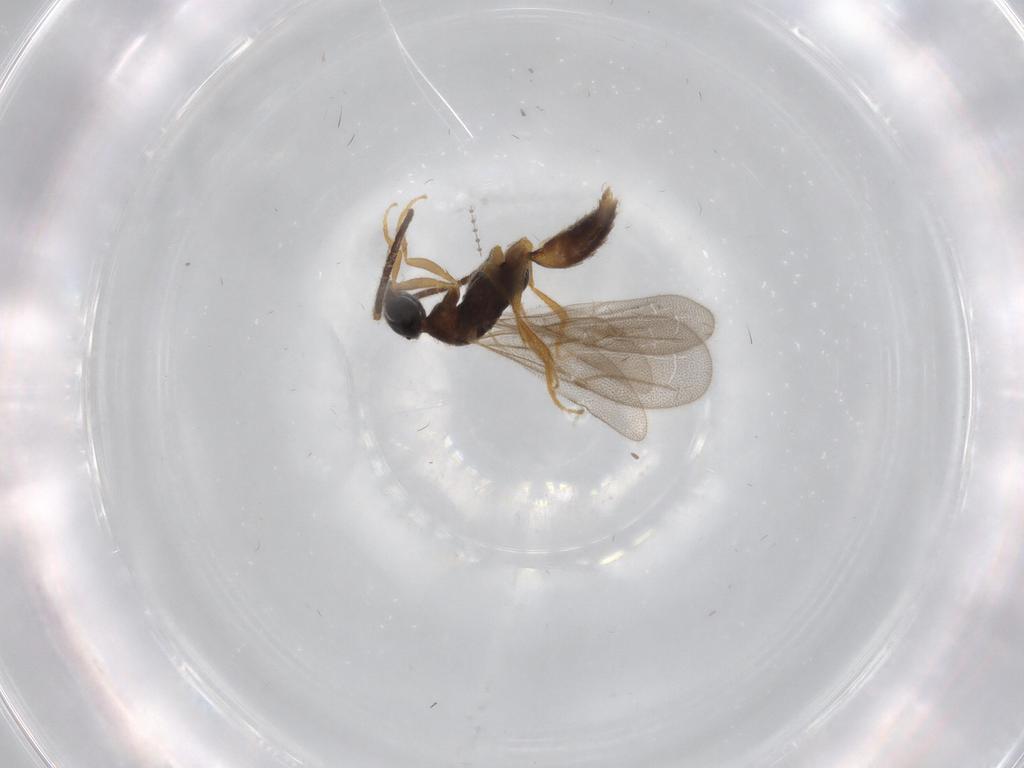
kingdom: Animalia
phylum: Arthropoda
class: Insecta
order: Hymenoptera
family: Bethylidae
